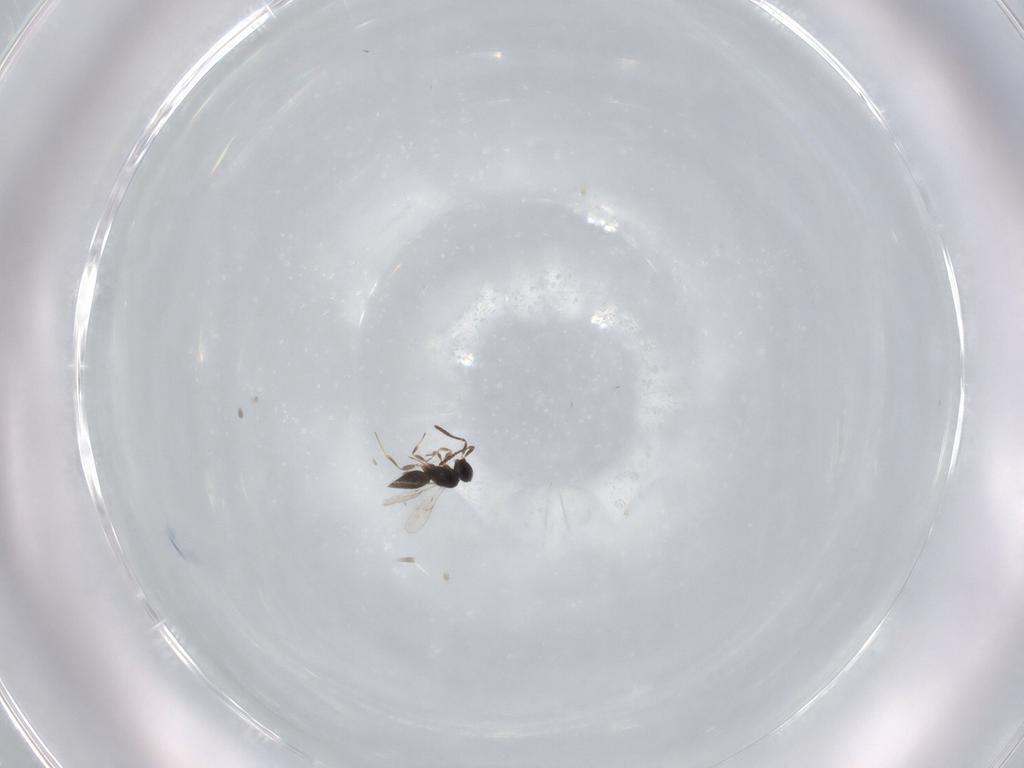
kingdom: Animalia
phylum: Arthropoda
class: Insecta
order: Hymenoptera
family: Scelionidae
